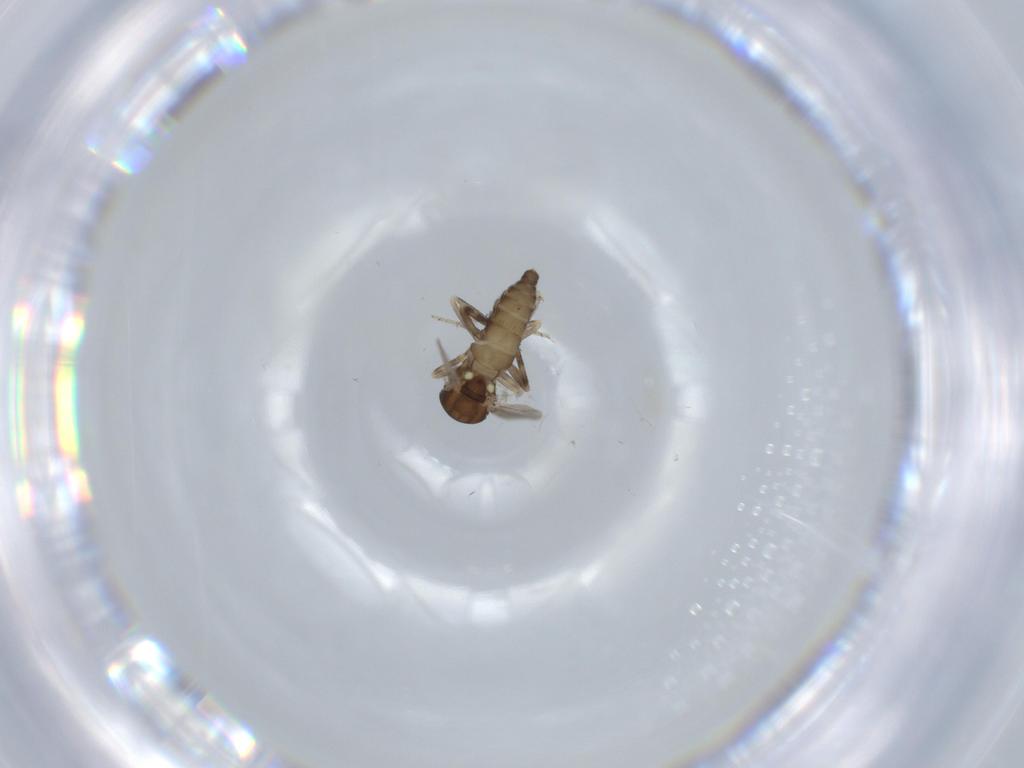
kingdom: Animalia
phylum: Arthropoda
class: Insecta
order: Diptera
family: Ceratopogonidae
